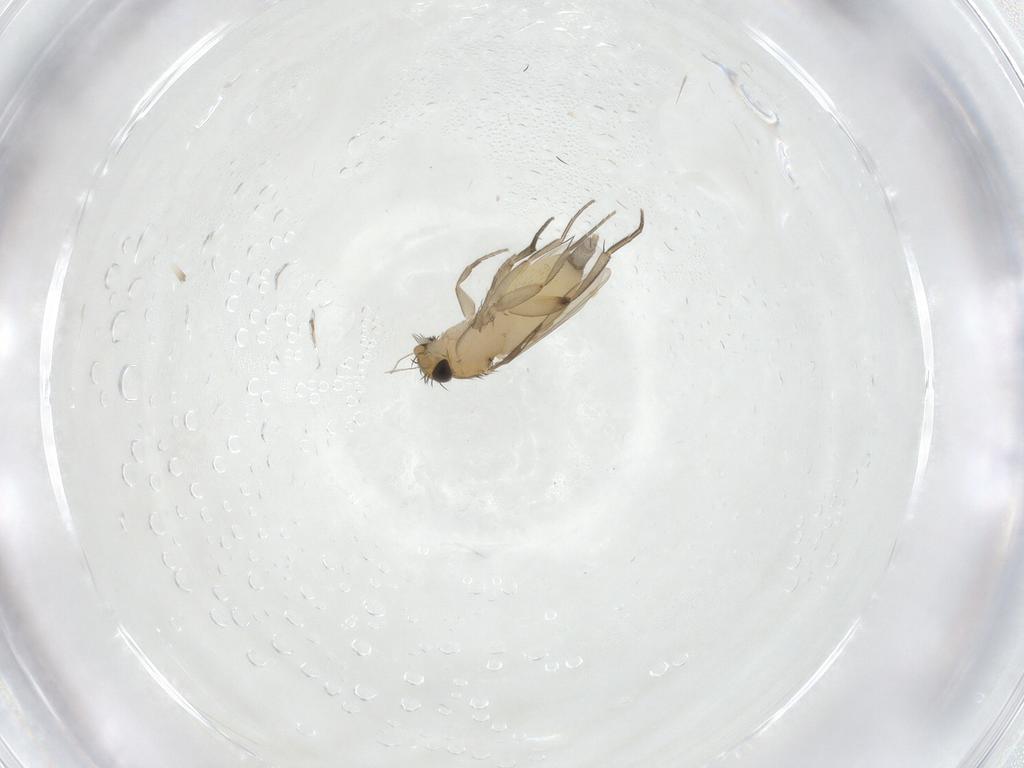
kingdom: Animalia
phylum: Arthropoda
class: Insecta
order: Diptera
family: Phoridae
